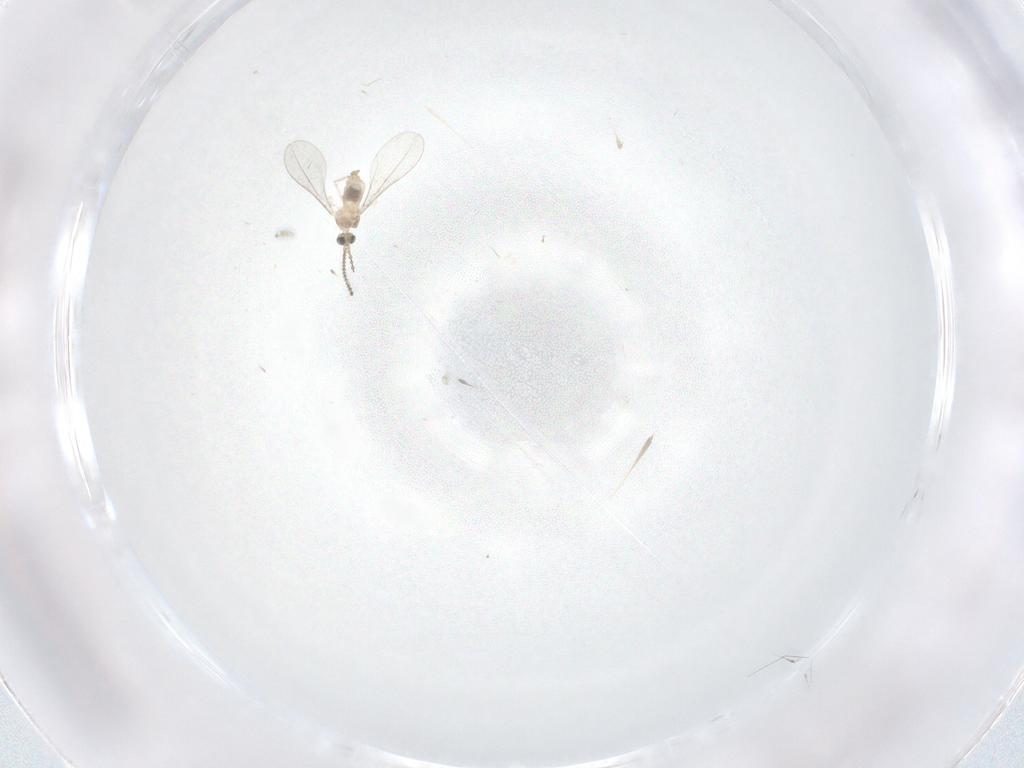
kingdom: Animalia
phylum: Arthropoda
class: Insecta
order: Diptera
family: Cecidomyiidae
